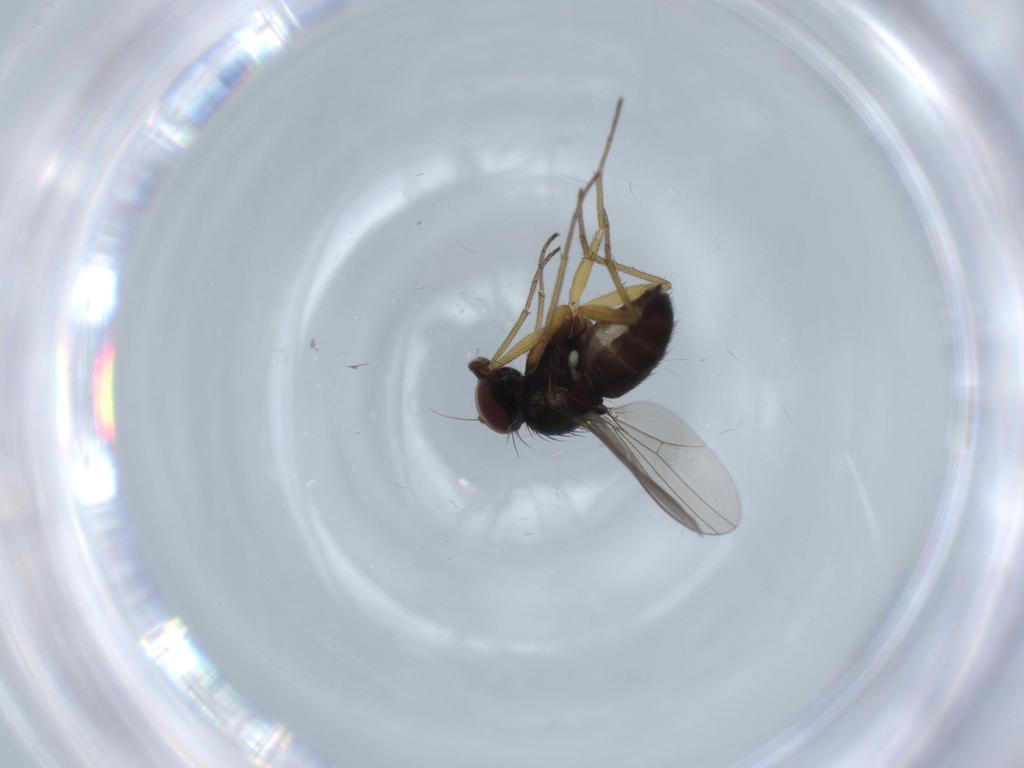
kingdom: Animalia
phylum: Arthropoda
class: Insecta
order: Diptera
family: Dolichopodidae
